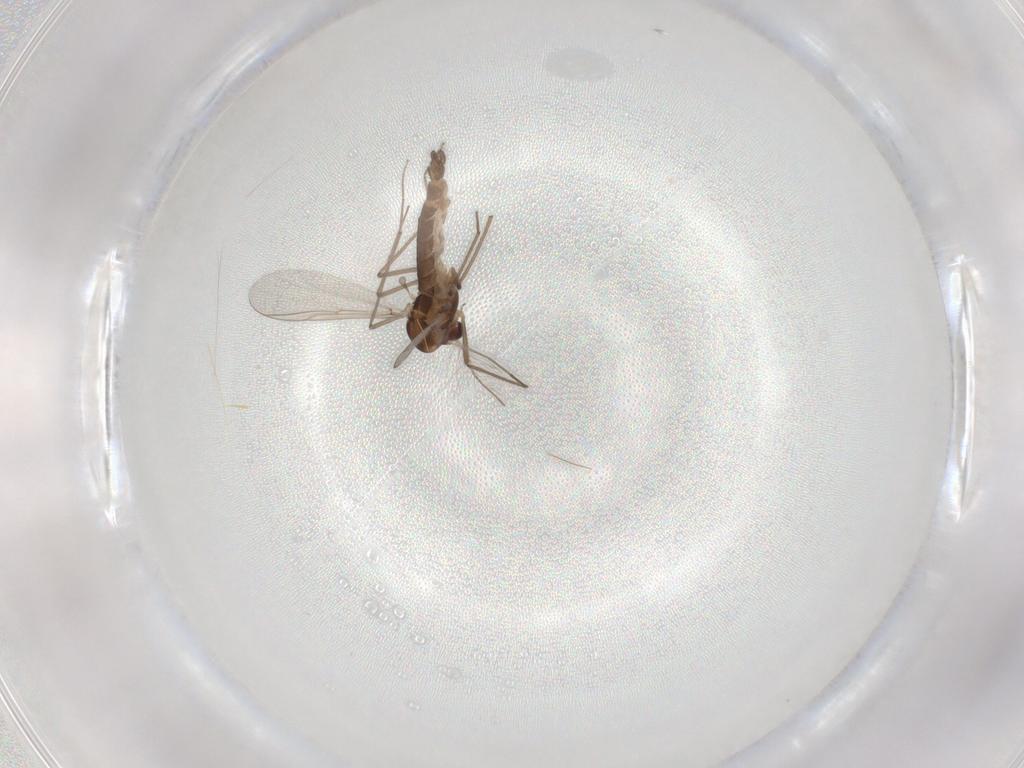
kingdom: Animalia
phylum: Arthropoda
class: Insecta
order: Diptera
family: Chironomidae
